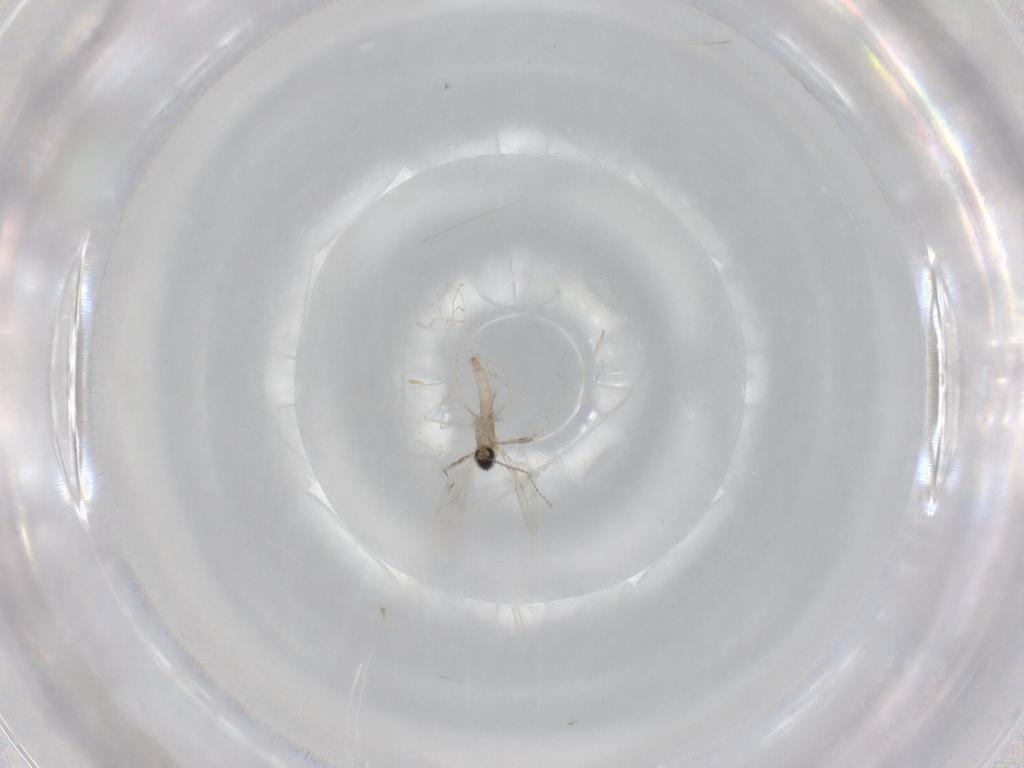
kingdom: Animalia
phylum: Arthropoda
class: Insecta
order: Diptera
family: Cecidomyiidae
